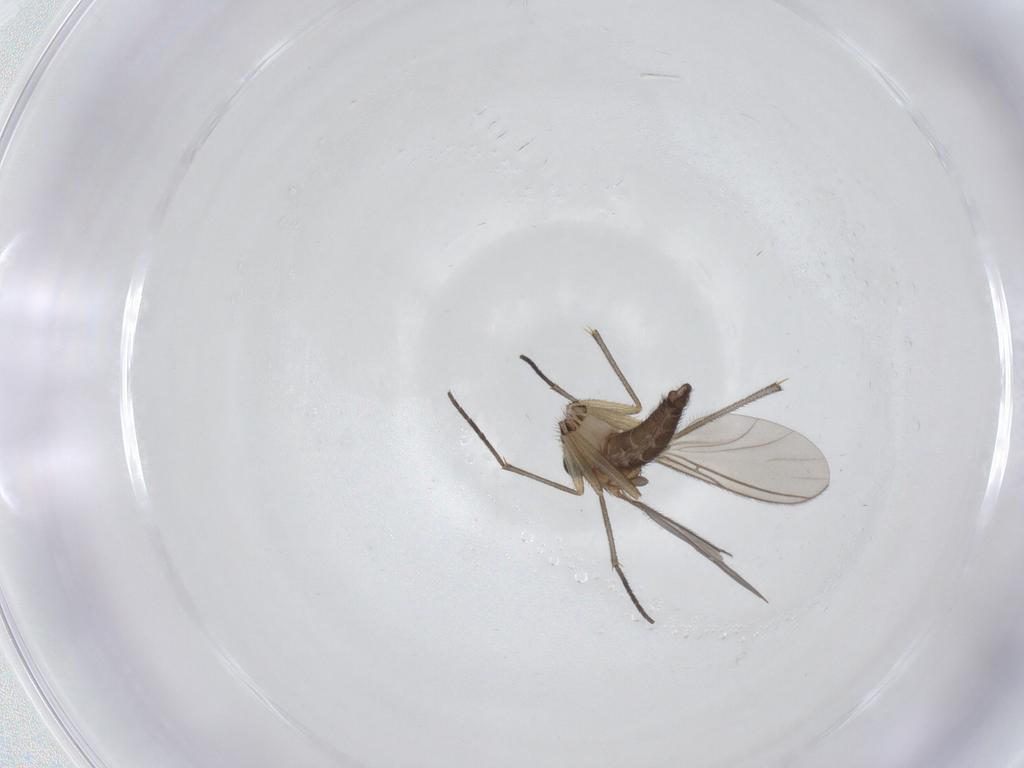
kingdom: Animalia
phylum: Arthropoda
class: Insecta
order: Diptera
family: Sciaridae
